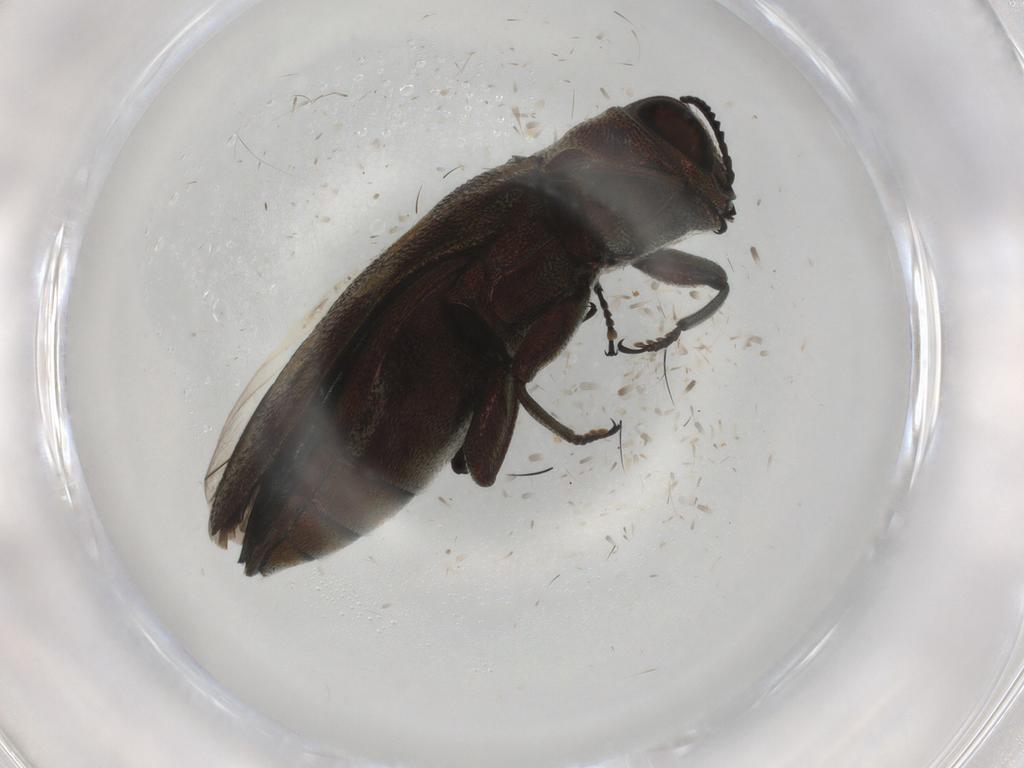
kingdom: Animalia
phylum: Arthropoda
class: Insecta
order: Coleoptera
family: Buprestidae
